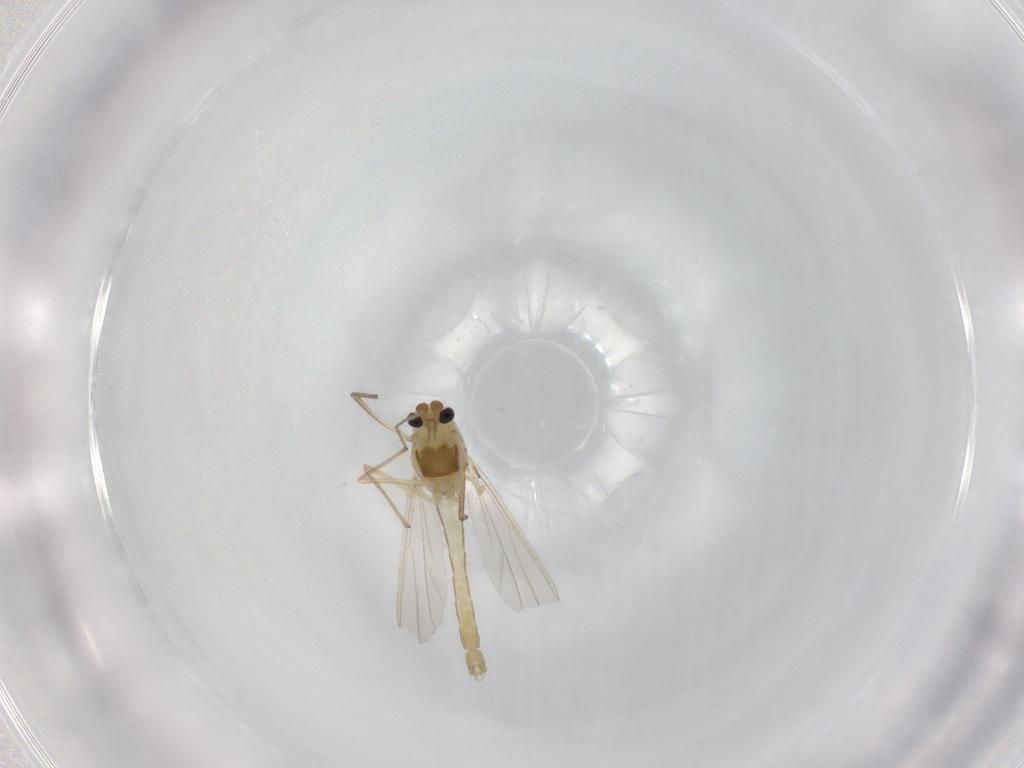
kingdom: Animalia
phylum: Arthropoda
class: Insecta
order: Diptera
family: Chironomidae
